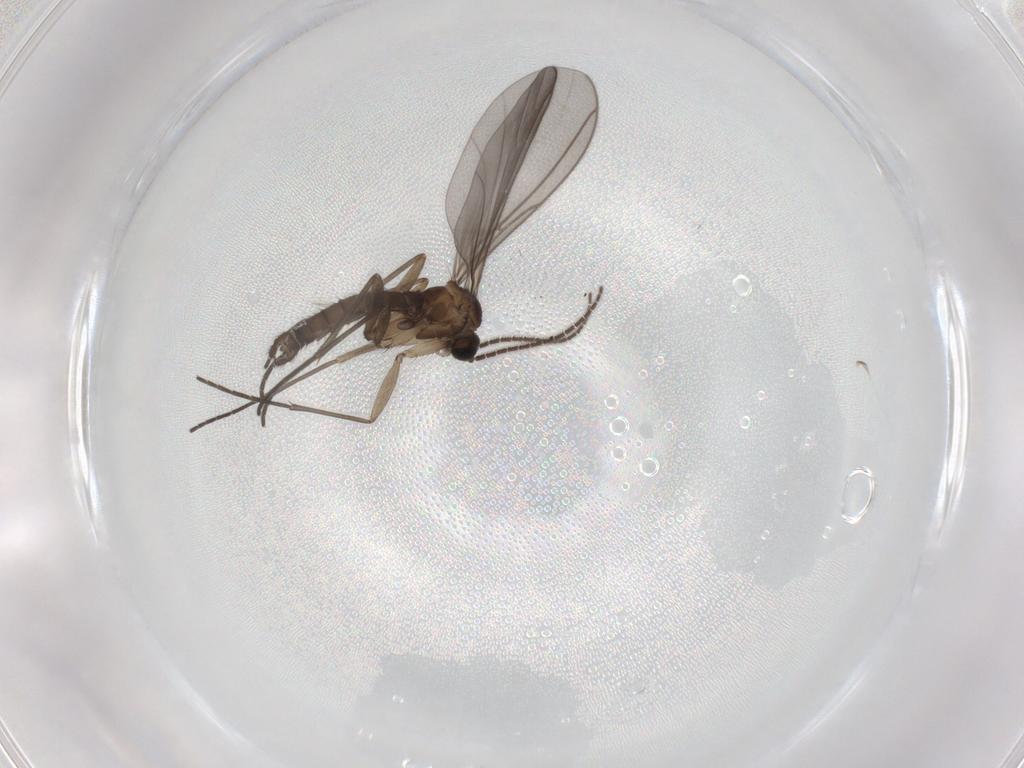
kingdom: Animalia
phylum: Arthropoda
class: Insecta
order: Diptera
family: Sciaridae
